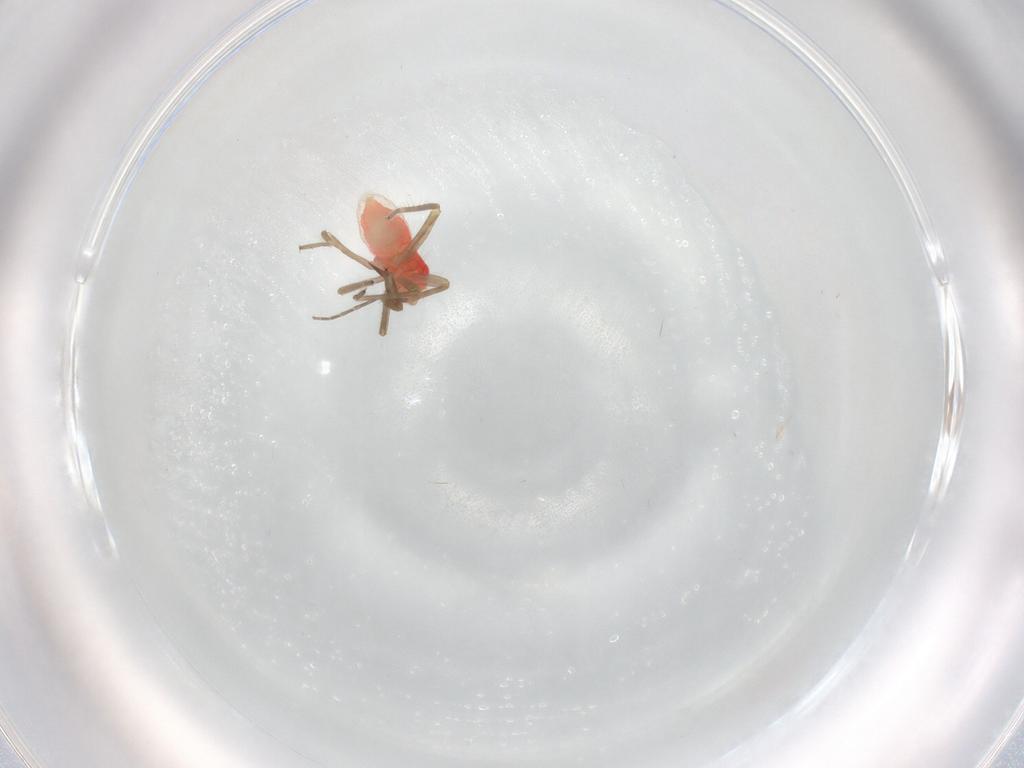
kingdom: Animalia
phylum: Arthropoda
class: Insecta
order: Hemiptera
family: Miridae
